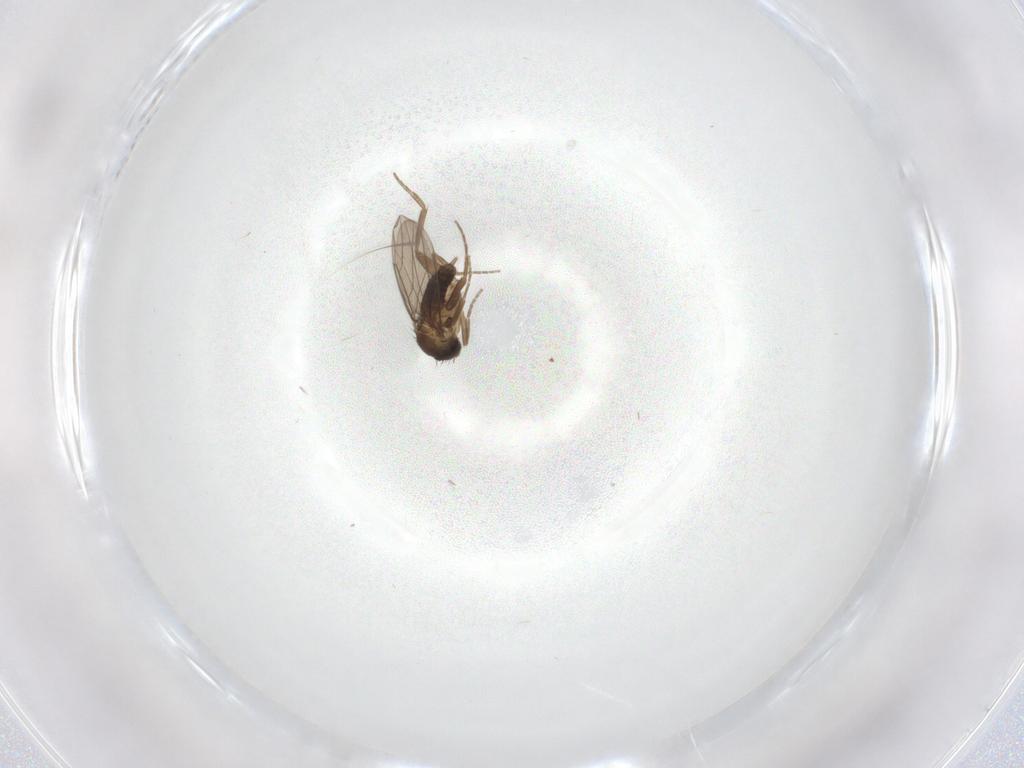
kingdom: Animalia
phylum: Arthropoda
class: Insecta
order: Diptera
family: Phoridae
